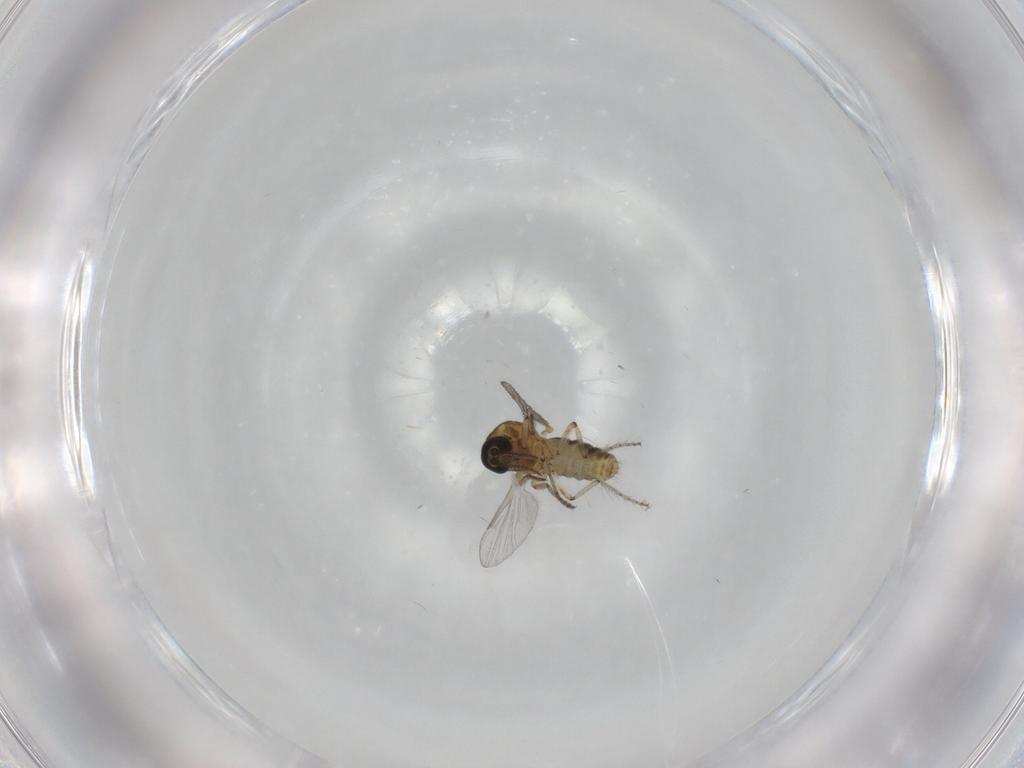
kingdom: Animalia
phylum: Arthropoda
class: Insecta
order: Diptera
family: Ceratopogonidae
